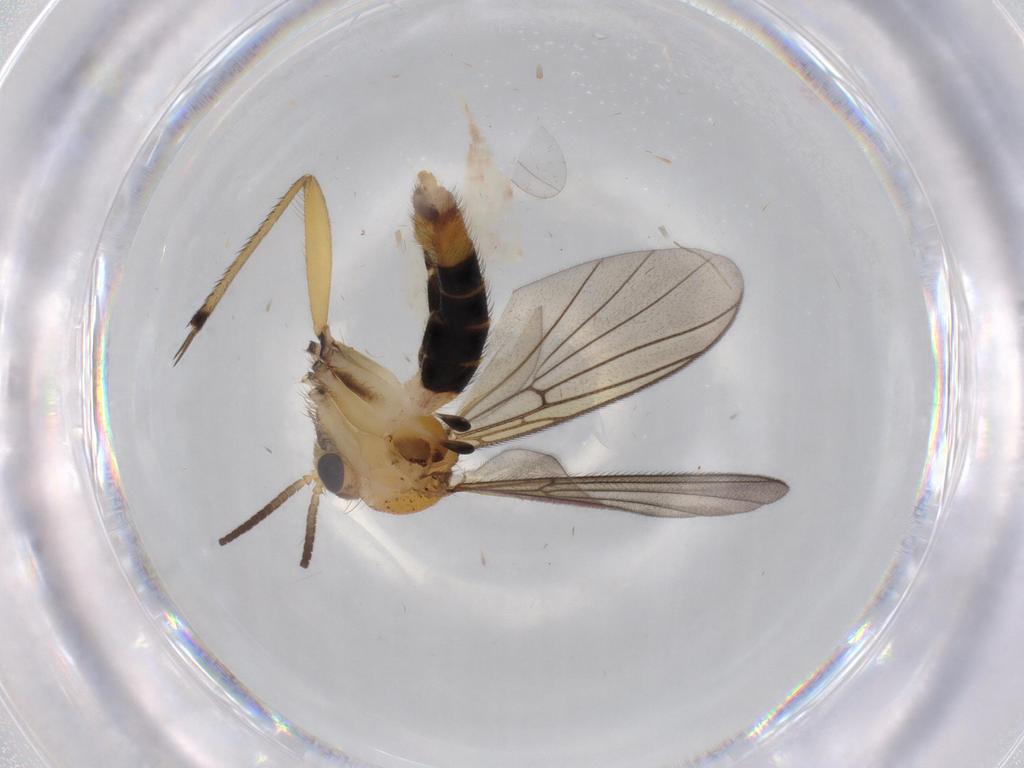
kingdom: Animalia
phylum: Arthropoda
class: Insecta
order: Diptera
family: Mycetophilidae
